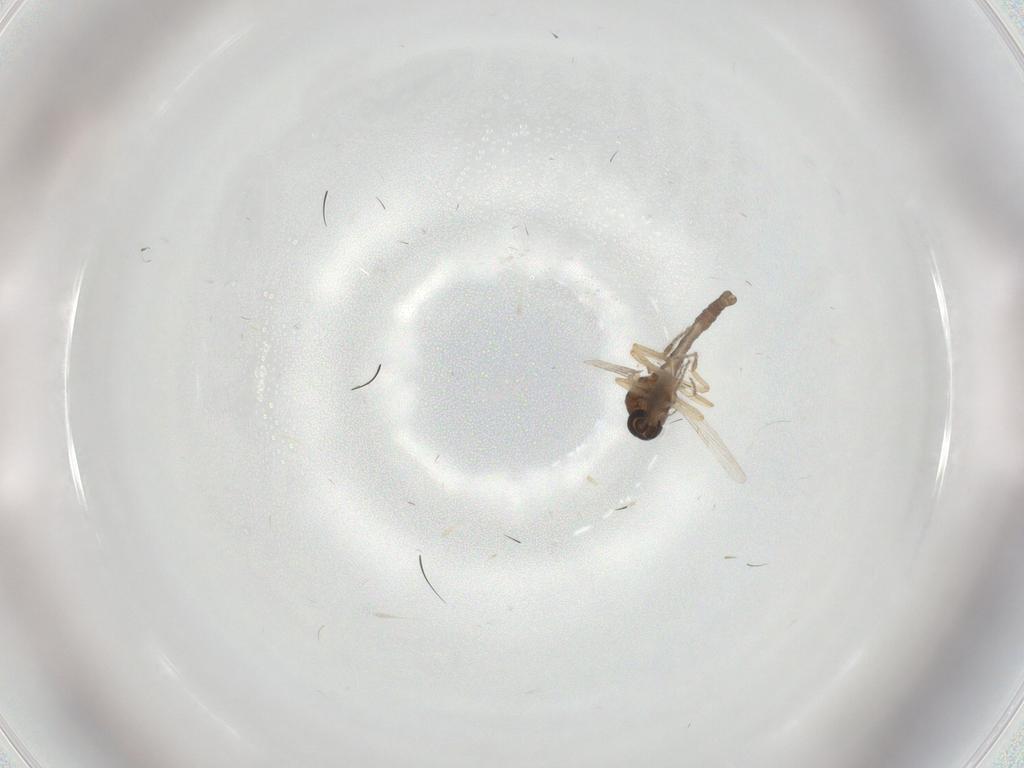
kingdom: Animalia
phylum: Arthropoda
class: Insecta
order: Diptera
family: Ceratopogonidae
